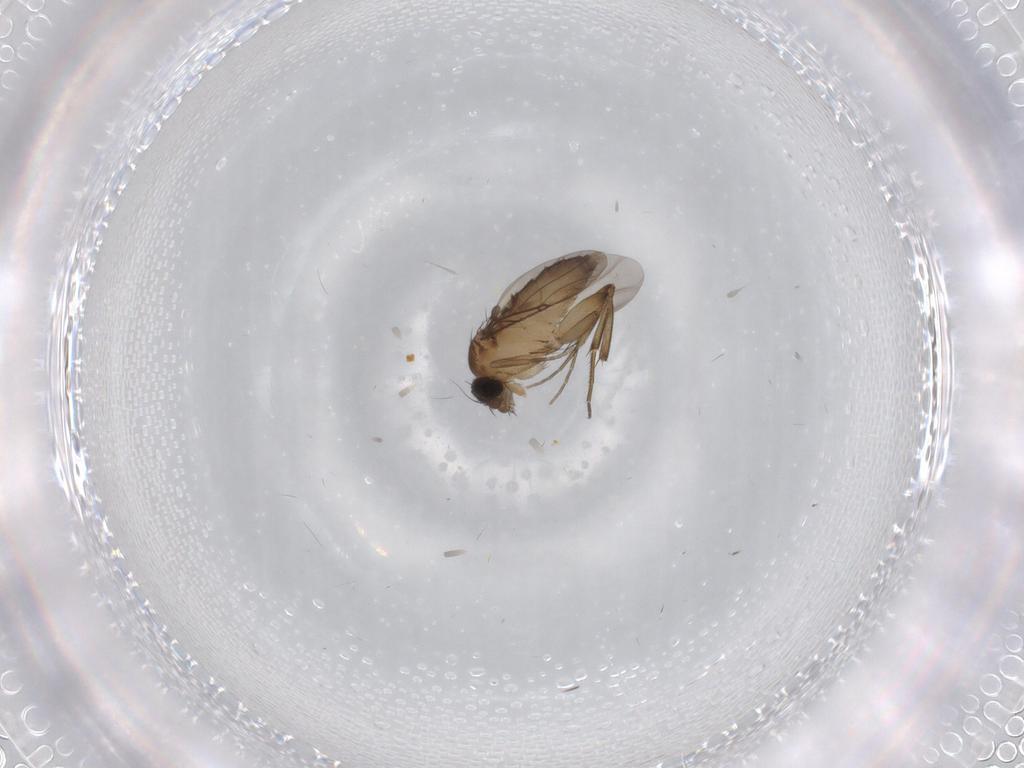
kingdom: Animalia
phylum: Arthropoda
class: Insecta
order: Diptera
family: Phoridae
